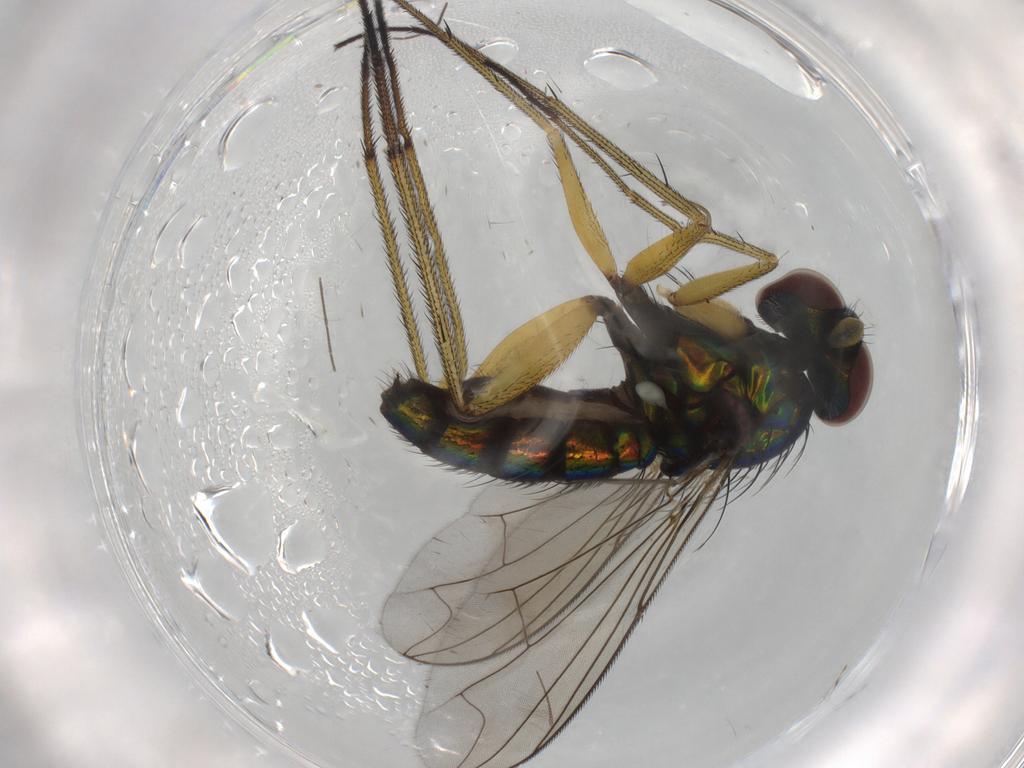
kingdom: Animalia
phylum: Arthropoda
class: Insecta
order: Diptera
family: Dolichopodidae
